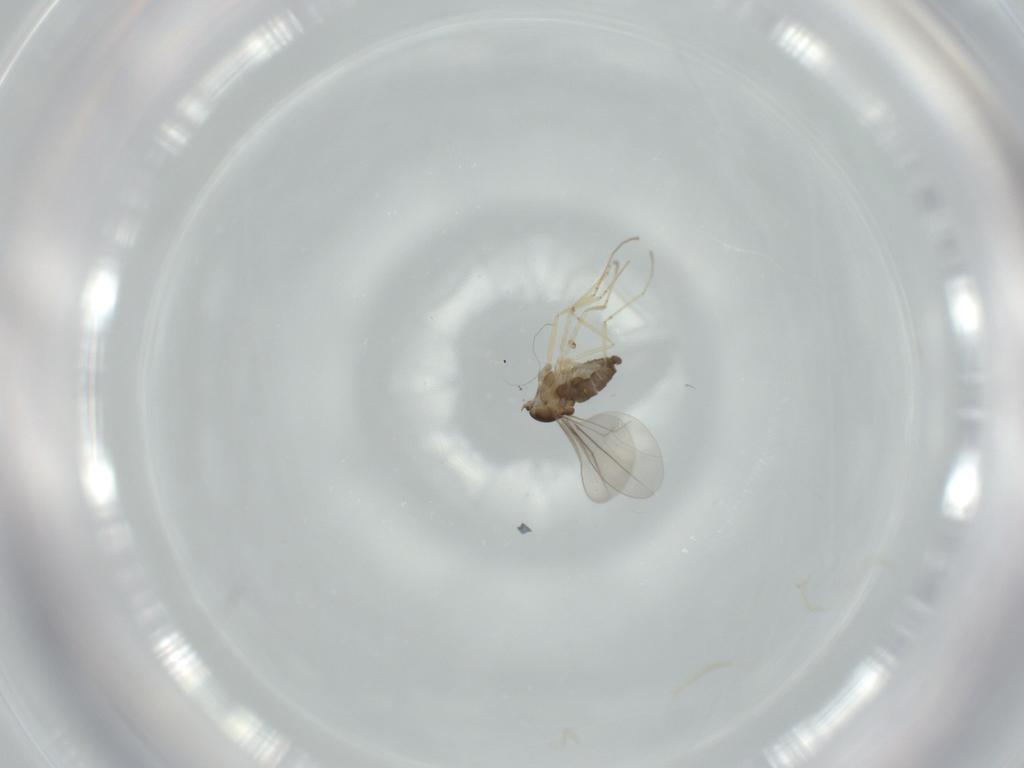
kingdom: Animalia
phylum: Arthropoda
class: Insecta
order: Diptera
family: Cecidomyiidae
